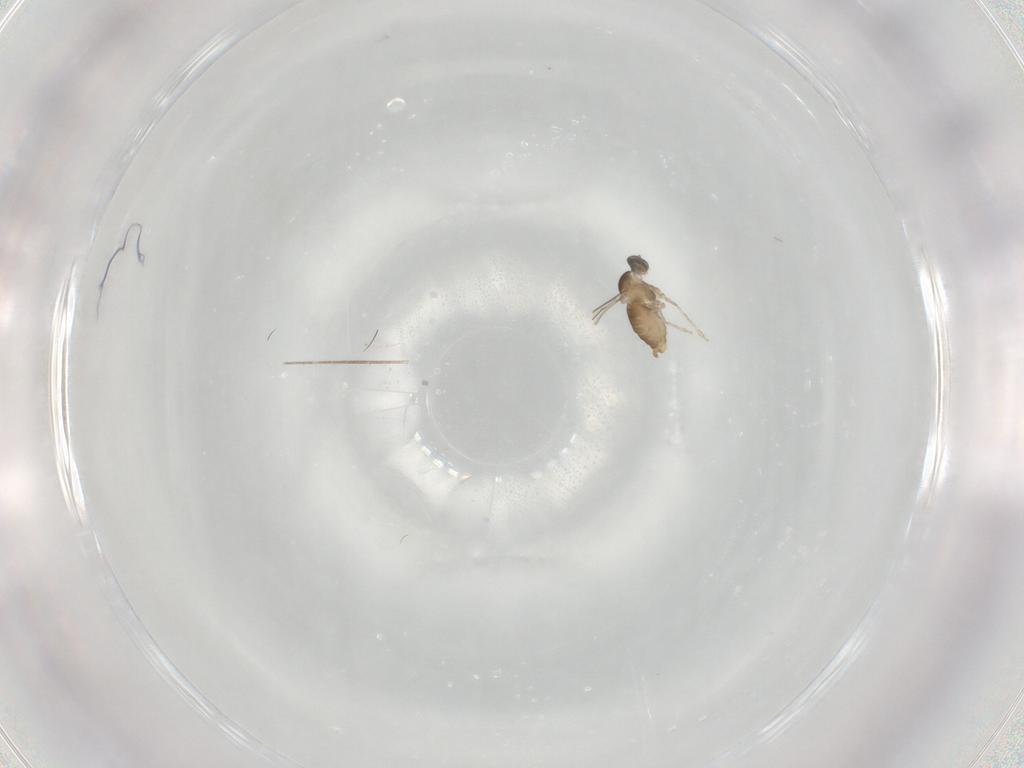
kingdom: Animalia
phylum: Arthropoda
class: Insecta
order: Diptera
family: Cecidomyiidae
